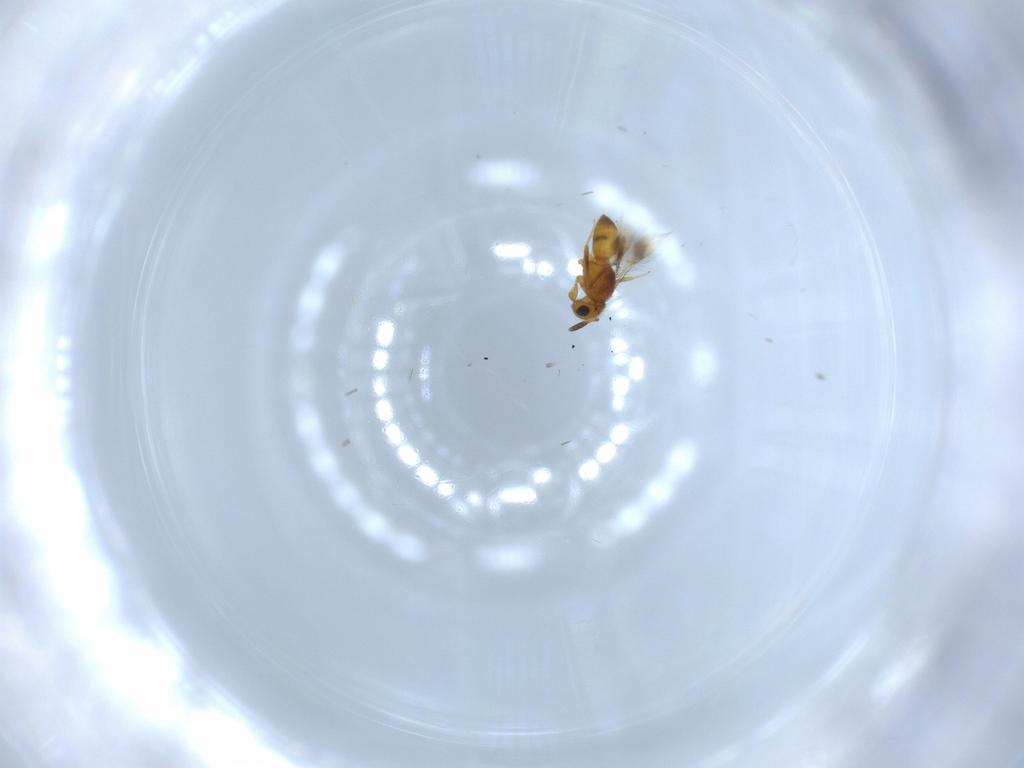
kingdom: Animalia
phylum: Arthropoda
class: Insecta
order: Hymenoptera
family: Scelionidae
